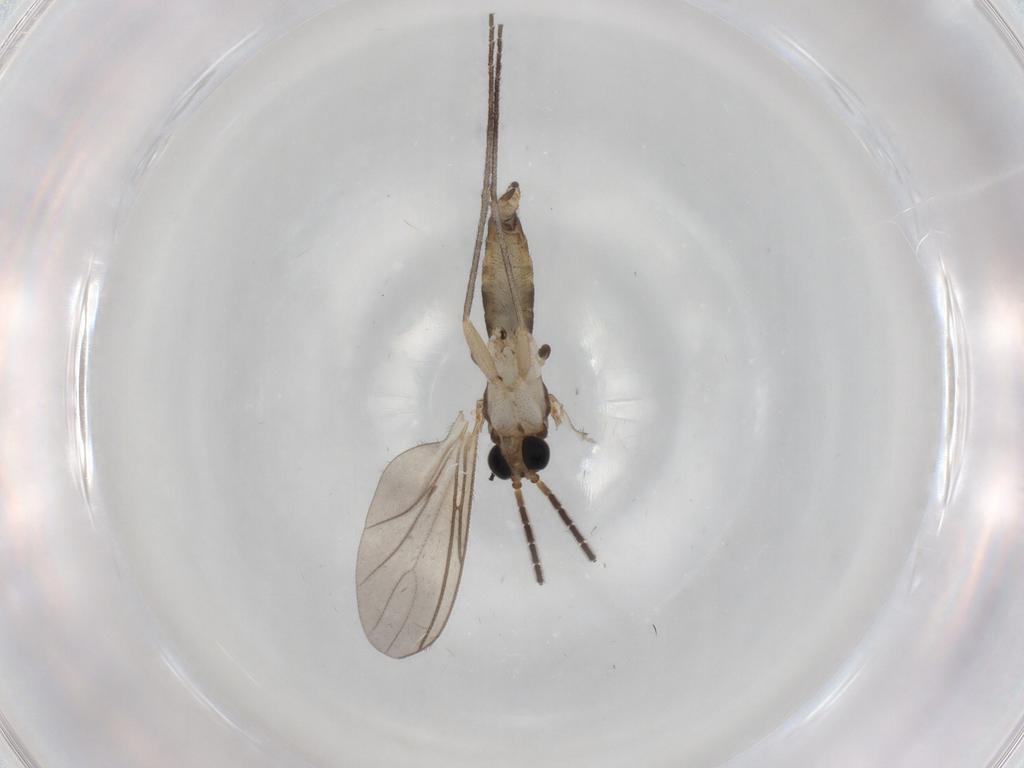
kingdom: Animalia
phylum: Arthropoda
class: Insecta
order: Diptera
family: Sciaridae
